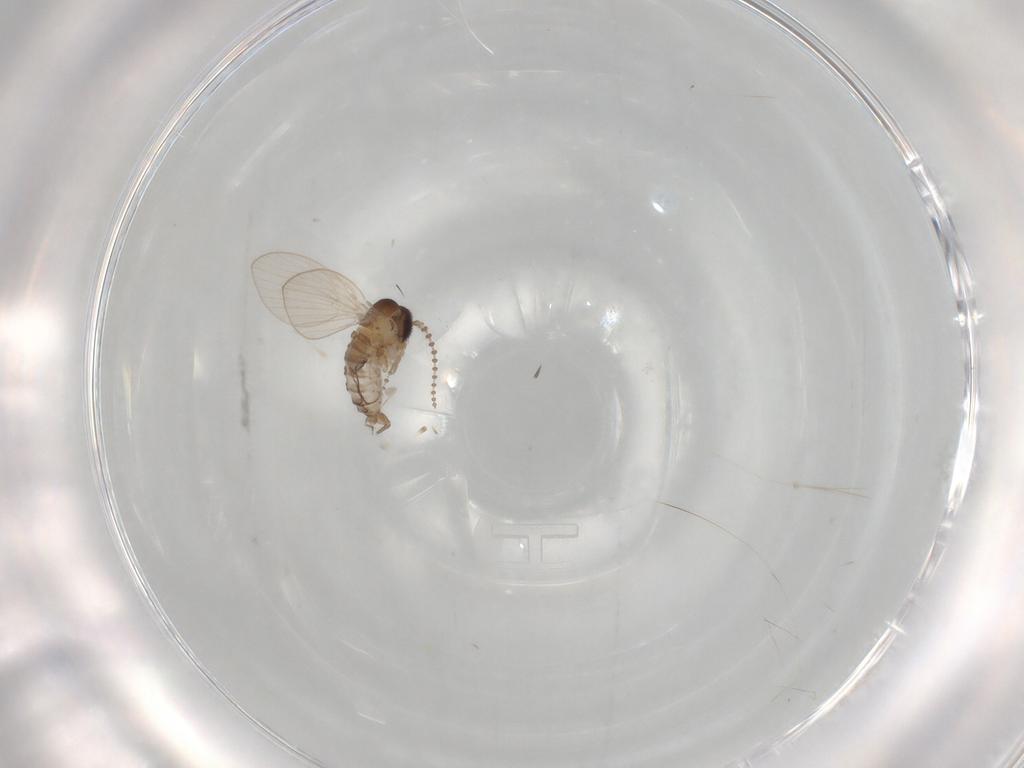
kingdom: Animalia
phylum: Arthropoda
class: Insecta
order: Diptera
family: Psychodidae
